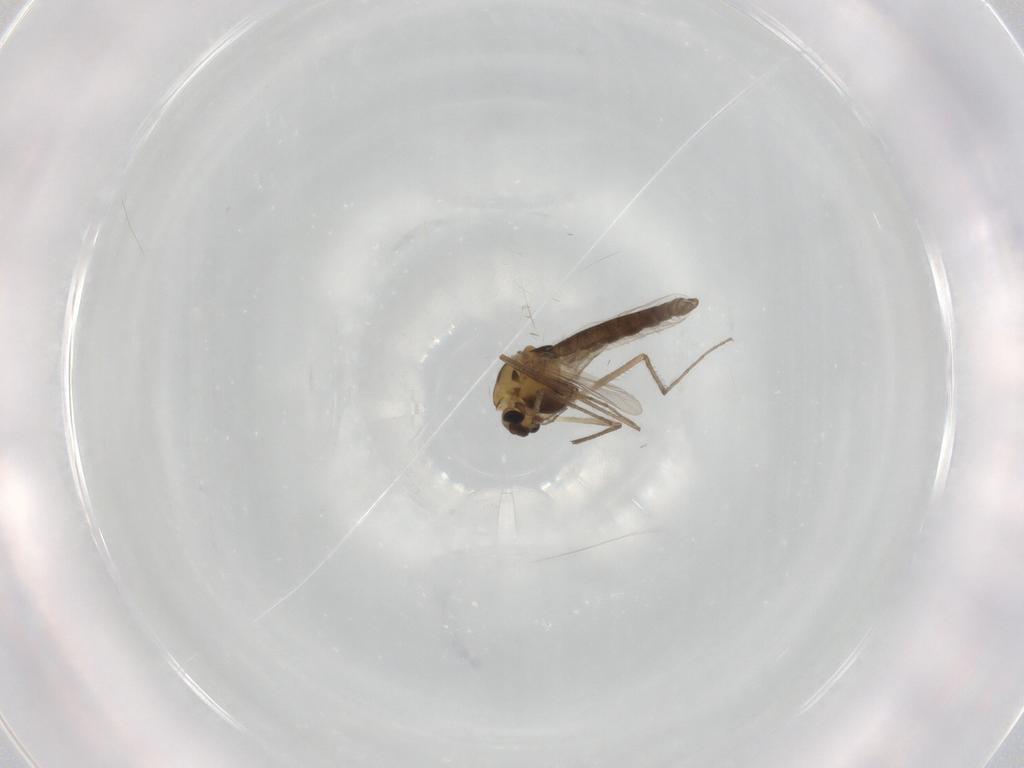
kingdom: Animalia
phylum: Arthropoda
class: Insecta
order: Diptera
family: Chironomidae
